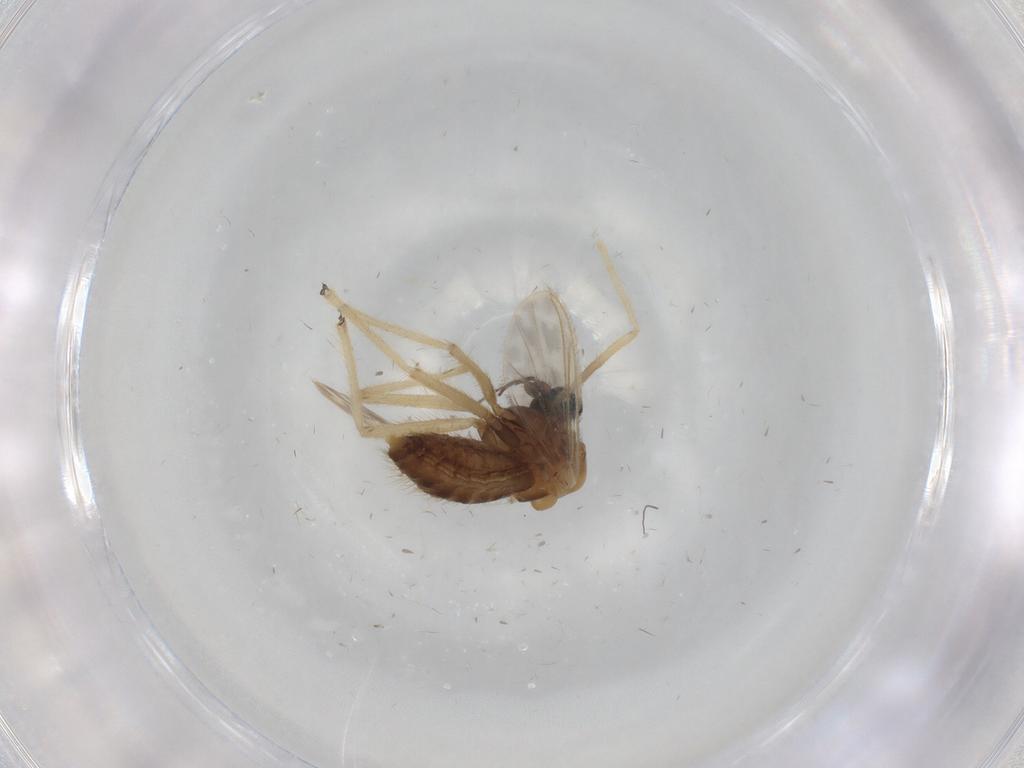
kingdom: Animalia
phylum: Arthropoda
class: Insecta
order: Diptera
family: Chironomidae
